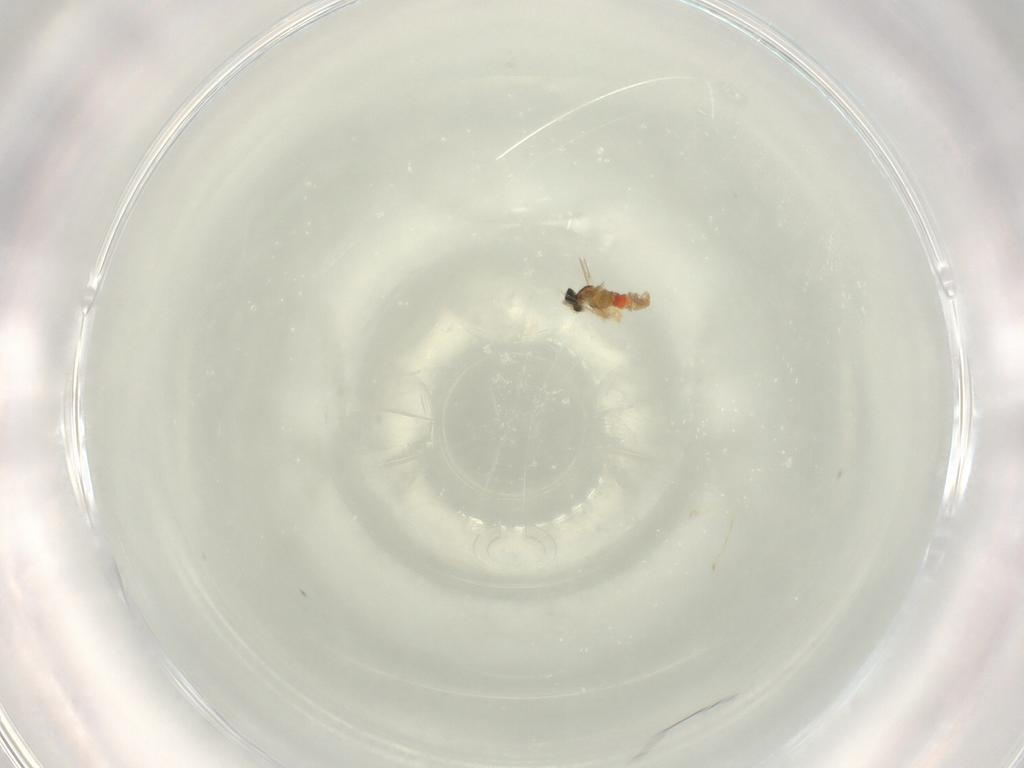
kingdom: Animalia
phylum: Arthropoda
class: Insecta
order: Diptera
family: Cecidomyiidae
